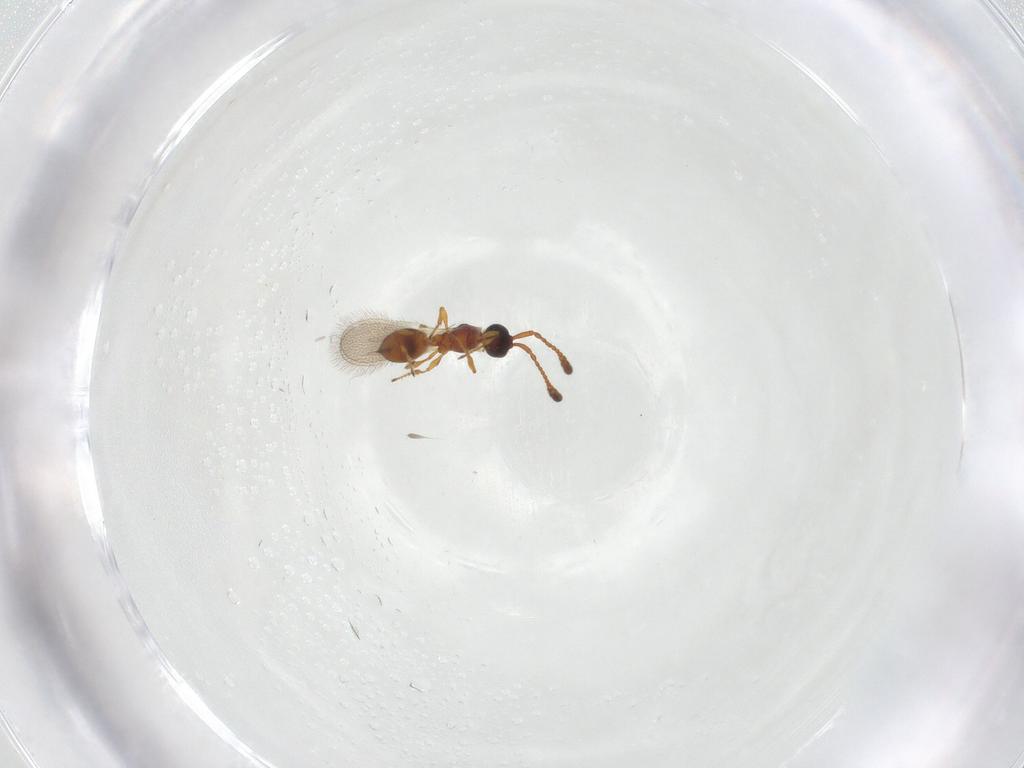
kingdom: Animalia
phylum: Arthropoda
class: Insecta
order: Hymenoptera
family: Diapriidae
